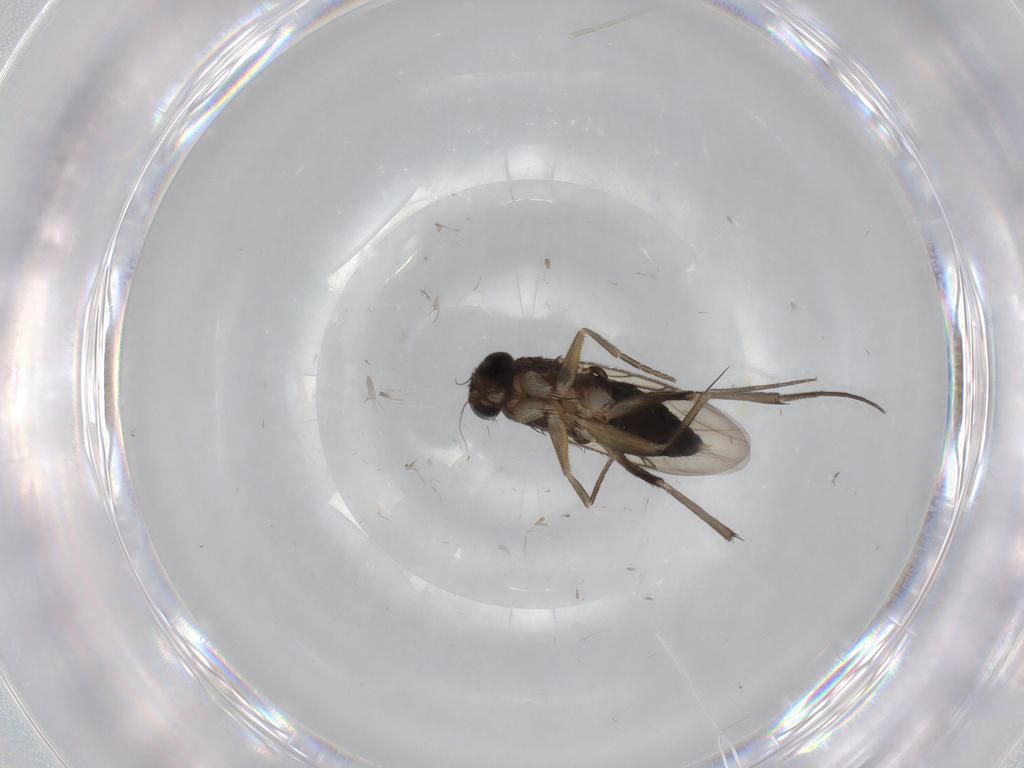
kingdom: Animalia
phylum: Arthropoda
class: Insecta
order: Diptera
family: Phoridae
